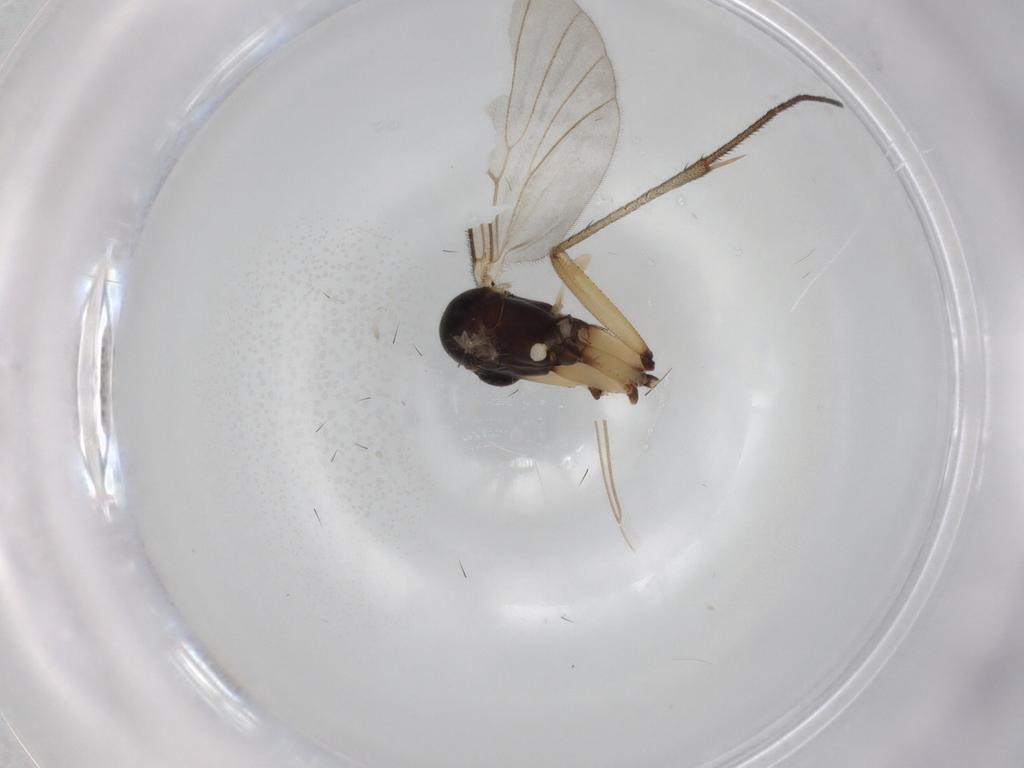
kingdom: Animalia
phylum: Arthropoda
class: Insecta
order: Diptera
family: Mycetophilidae
